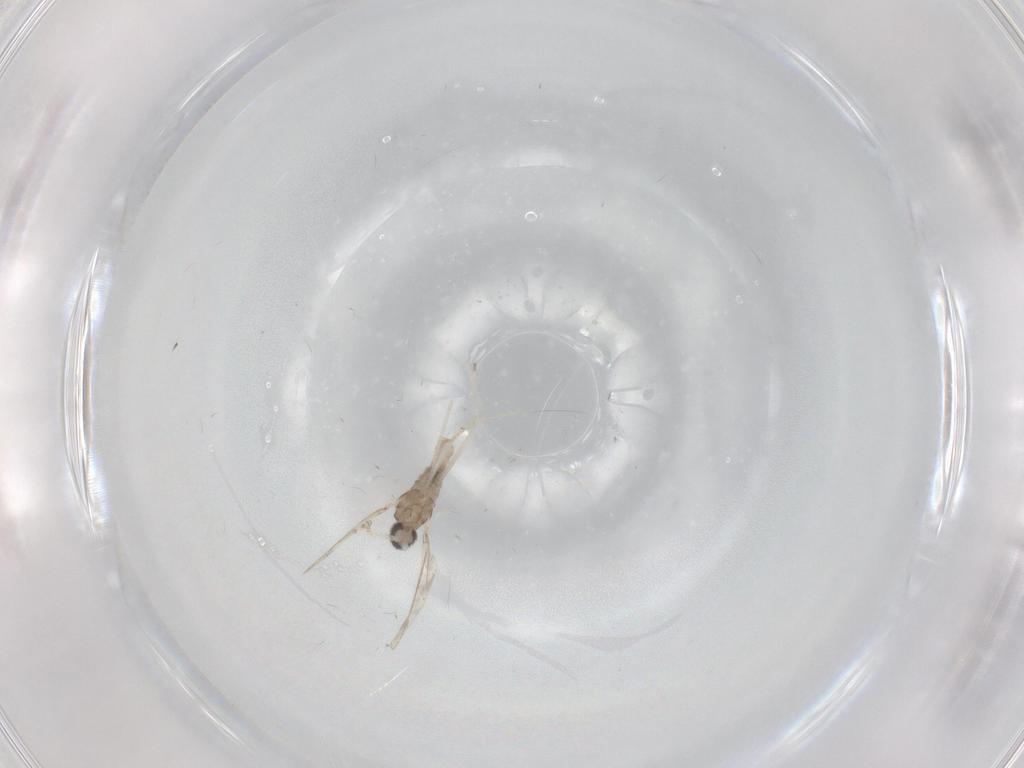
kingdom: Animalia
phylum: Arthropoda
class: Insecta
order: Diptera
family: Cecidomyiidae
